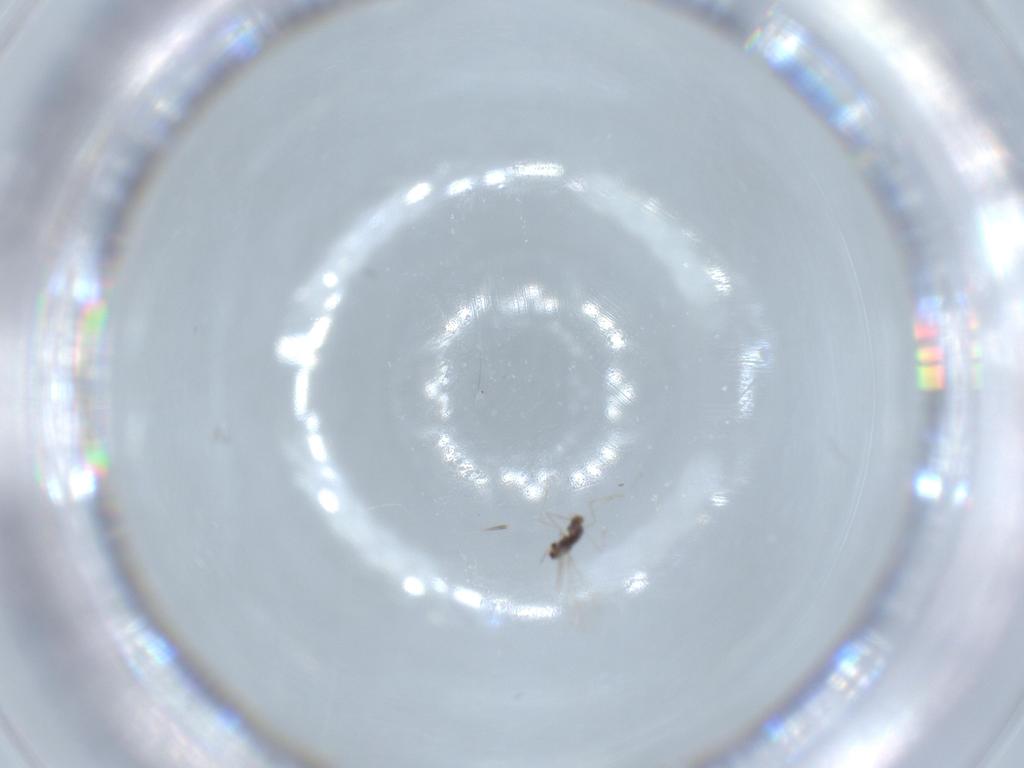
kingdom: Animalia
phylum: Arthropoda
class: Insecta
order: Diptera
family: Cecidomyiidae
